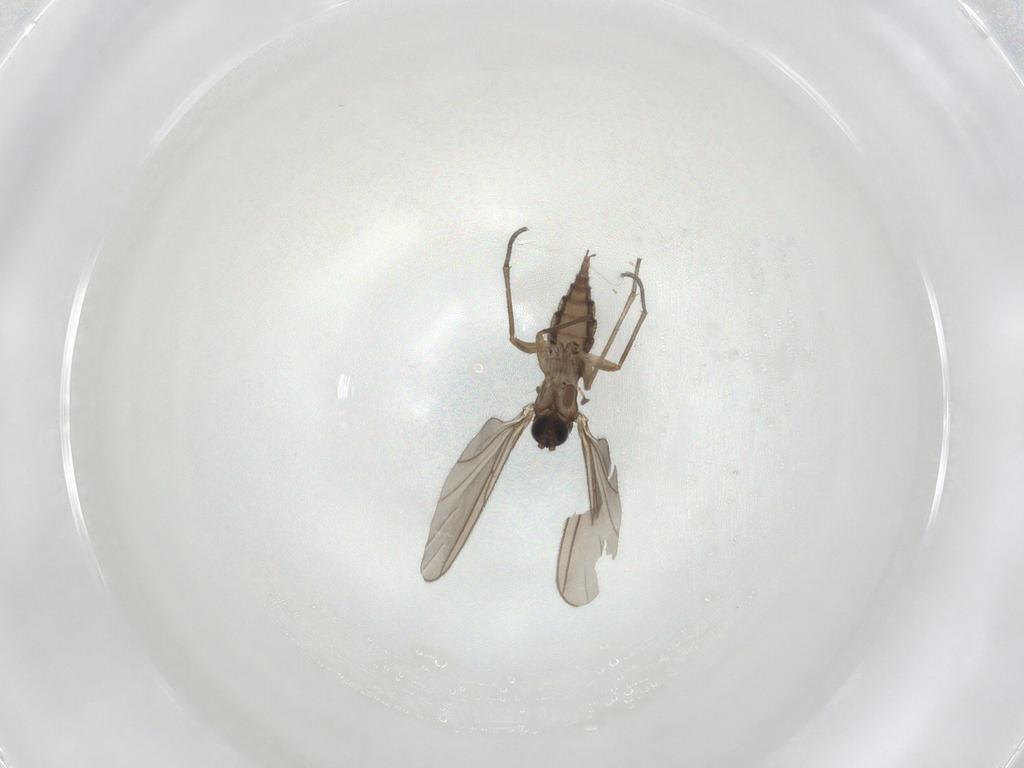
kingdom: Animalia
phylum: Arthropoda
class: Insecta
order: Diptera
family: Sciaridae
